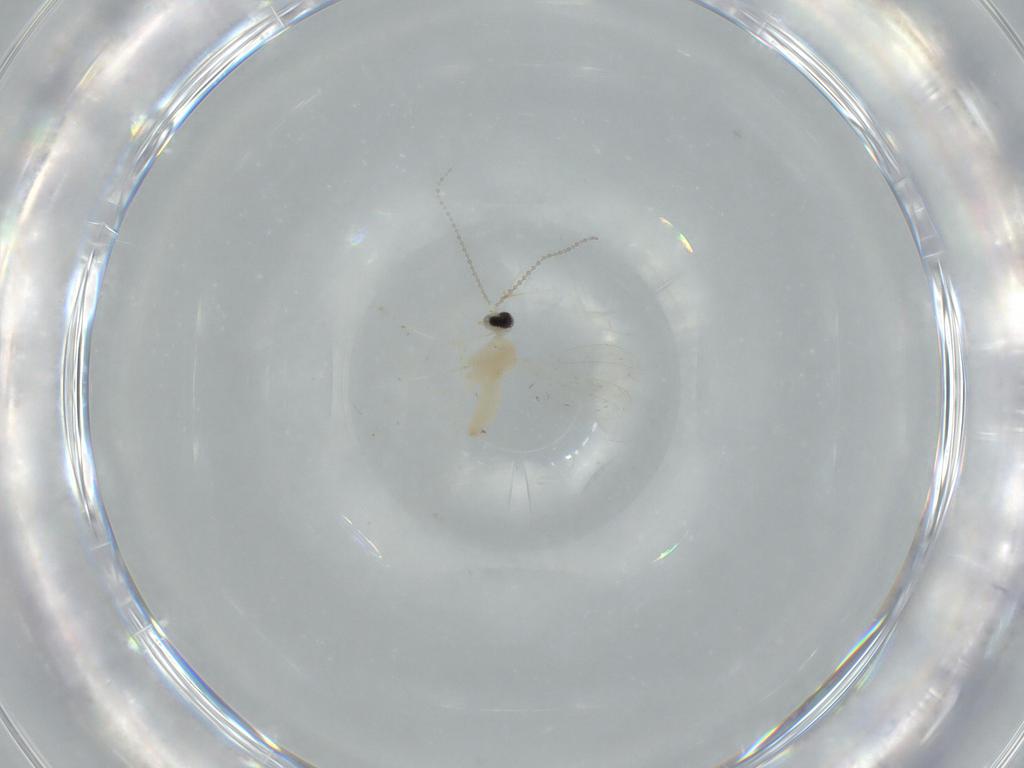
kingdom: Animalia
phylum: Arthropoda
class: Insecta
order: Diptera
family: Cecidomyiidae
